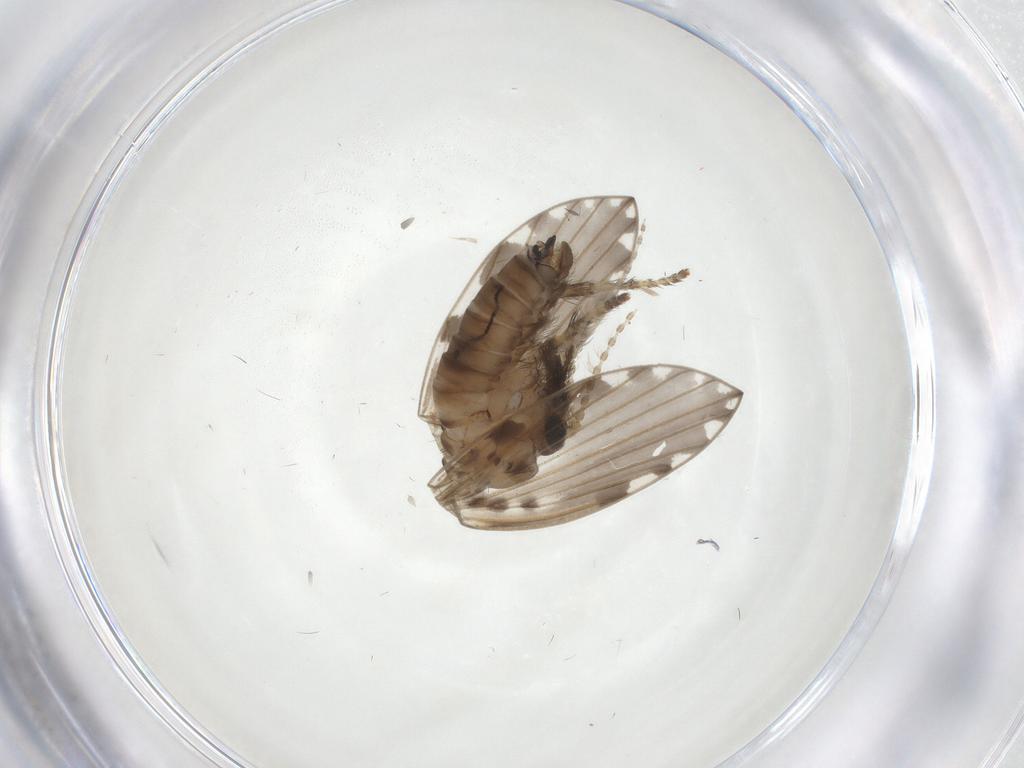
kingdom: Animalia
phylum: Arthropoda
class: Insecta
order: Diptera
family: Psychodidae
